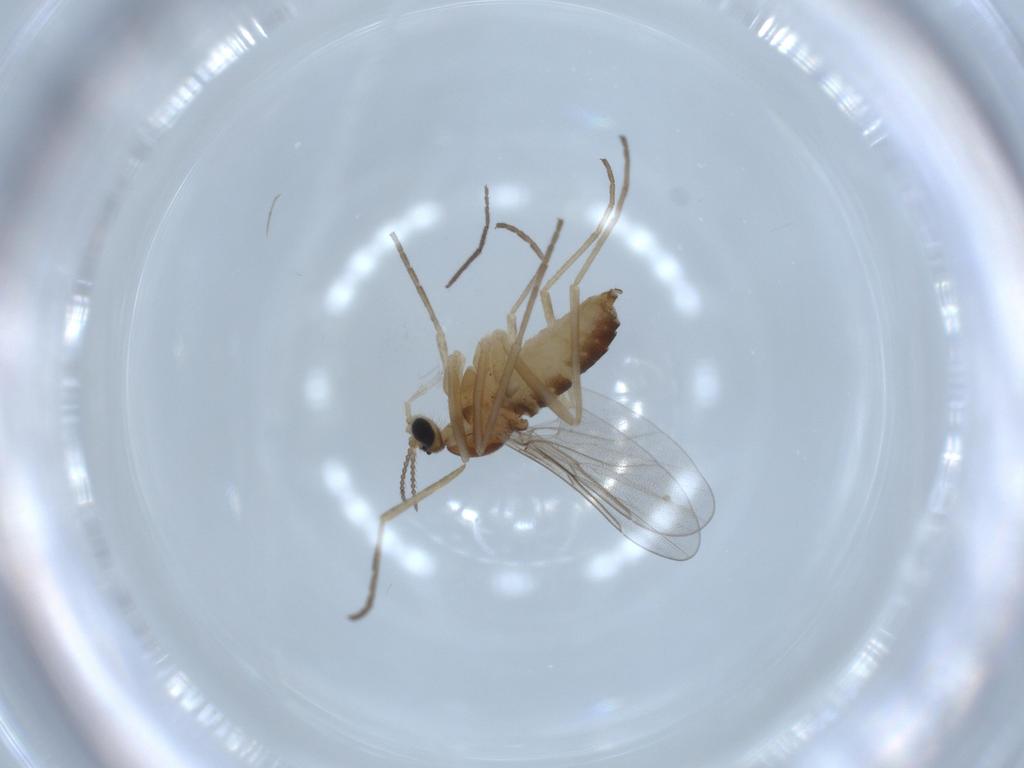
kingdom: Animalia
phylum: Arthropoda
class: Insecta
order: Diptera
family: Cecidomyiidae
